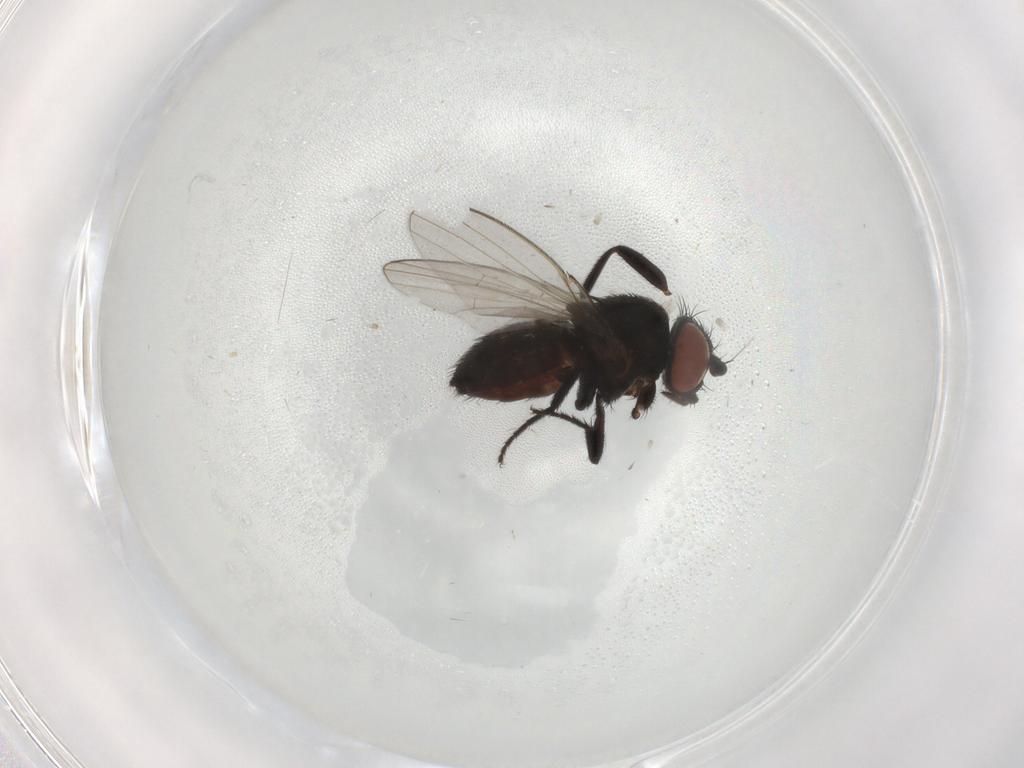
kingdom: Animalia
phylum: Arthropoda
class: Insecta
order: Diptera
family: Milichiidae
